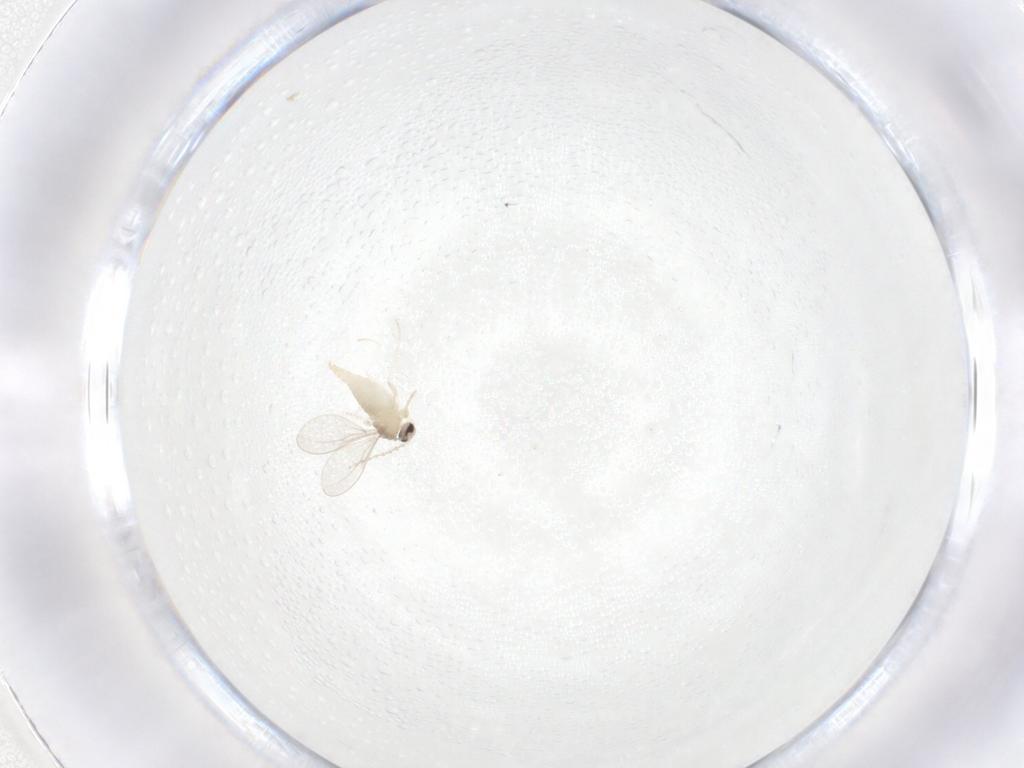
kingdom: Animalia
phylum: Arthropoda
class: Insecta
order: Diptera
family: Cecidomyiidae
